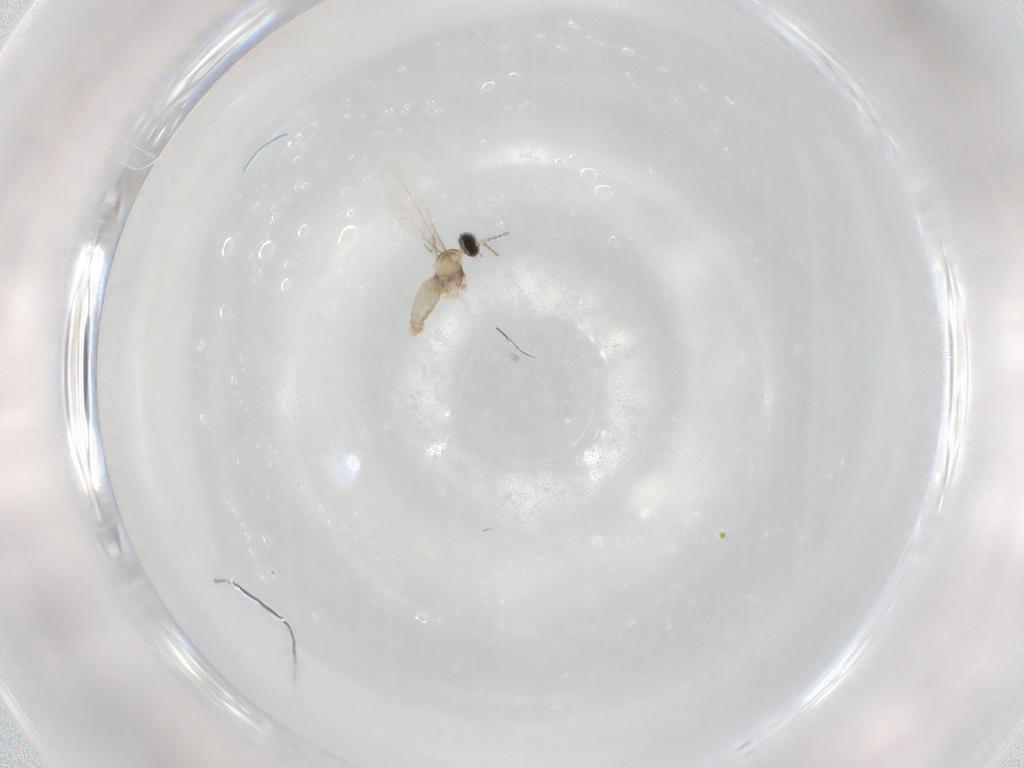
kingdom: Animalia
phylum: Arthropoda
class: Insecta
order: Diptera
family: Cecidomyiidae
